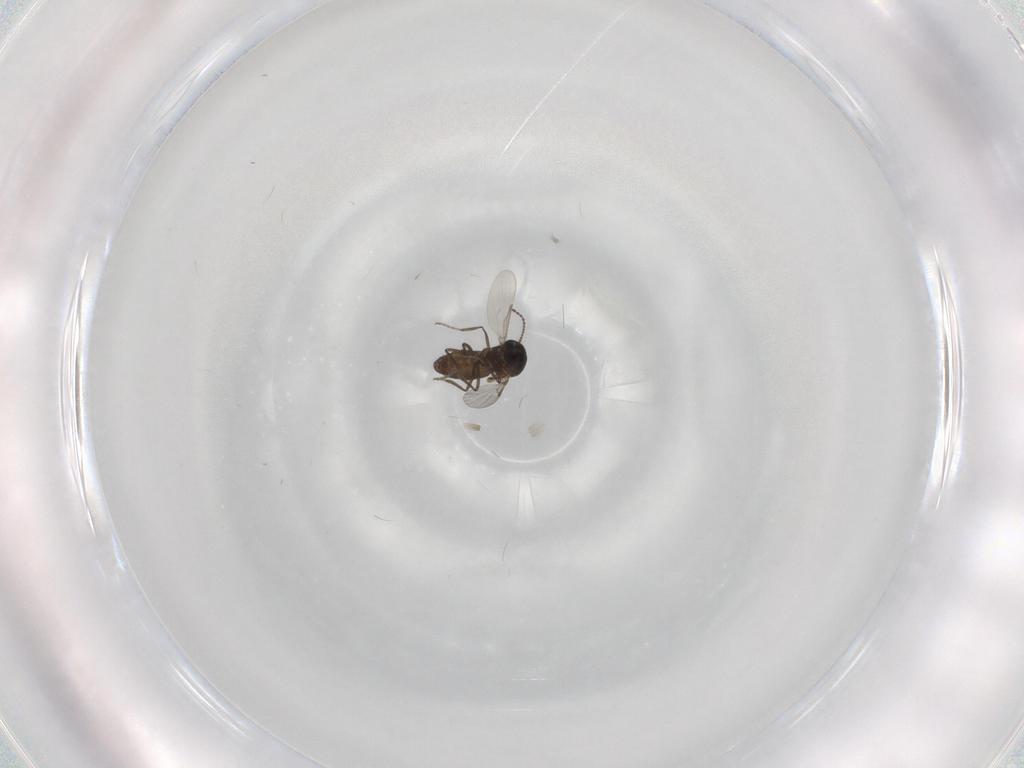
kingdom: Animalia
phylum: Arthropoda
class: Insecta
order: Diptera
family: Ceratopogonidae
